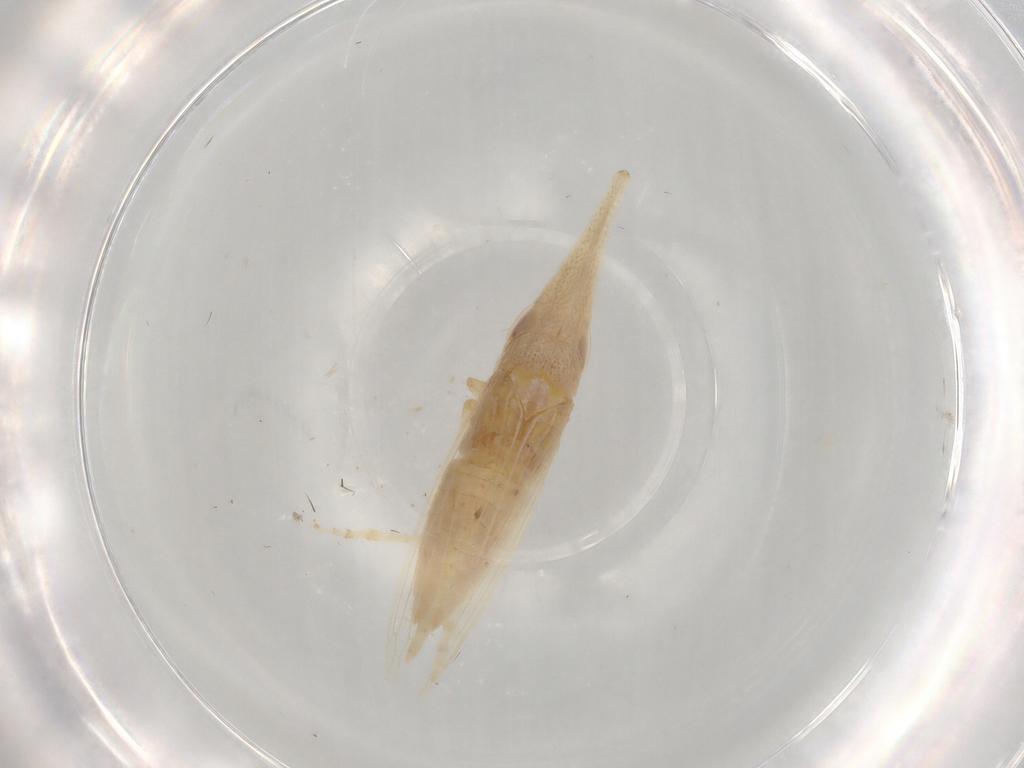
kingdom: Animalia
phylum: Arthropoda
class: Insecta
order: Hemiptera
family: Cicadellidae
